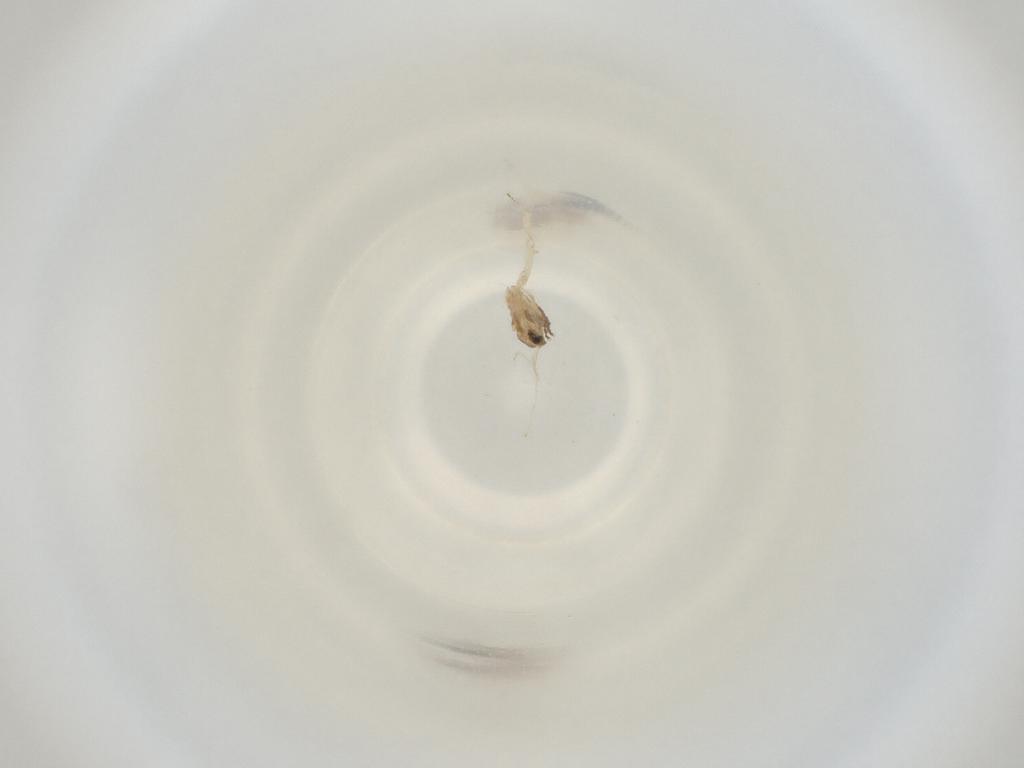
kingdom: Animalia
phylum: Arthropoda
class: Insecta
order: Diptera
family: Cecidomyiidae
